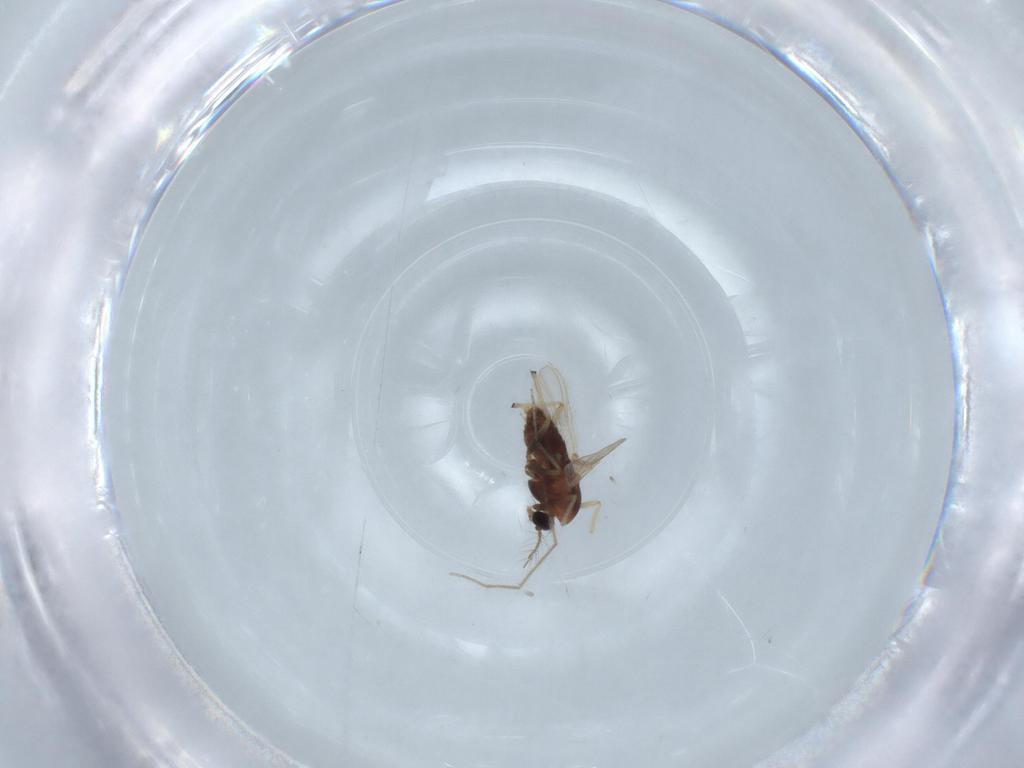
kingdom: Animalia
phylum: Arthropoda
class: Insecta
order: Diptera
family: Chironomidae
